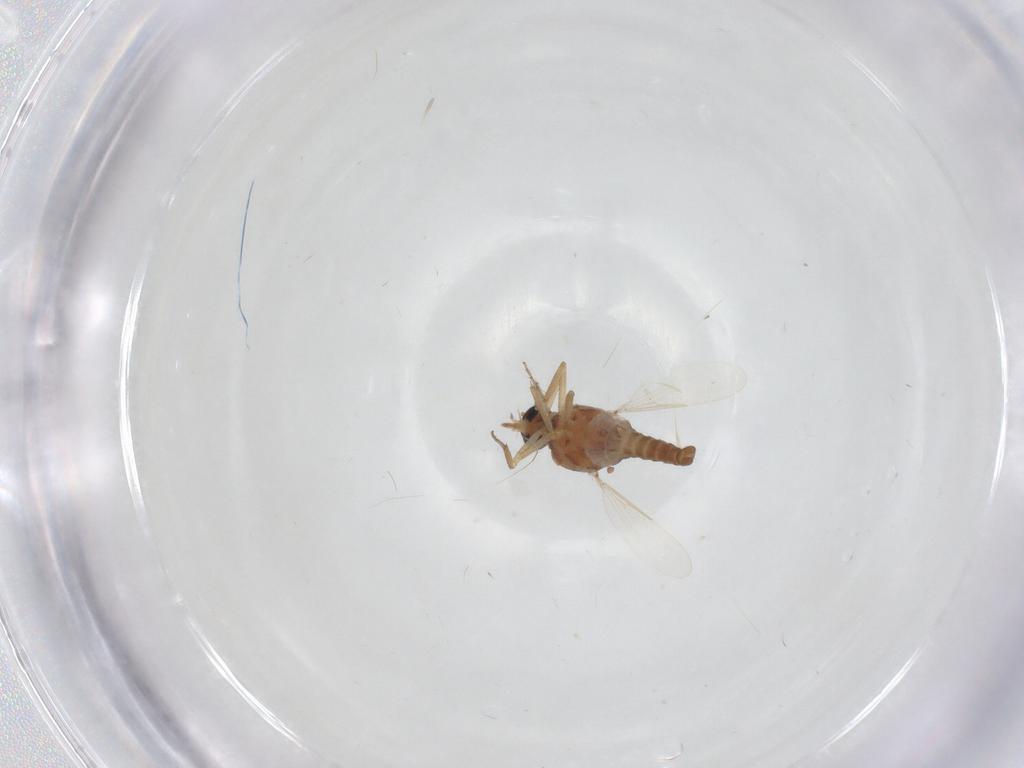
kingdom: Animalia
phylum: Arthropoda
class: Insecta
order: Diptera
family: Ceratopogonidae
